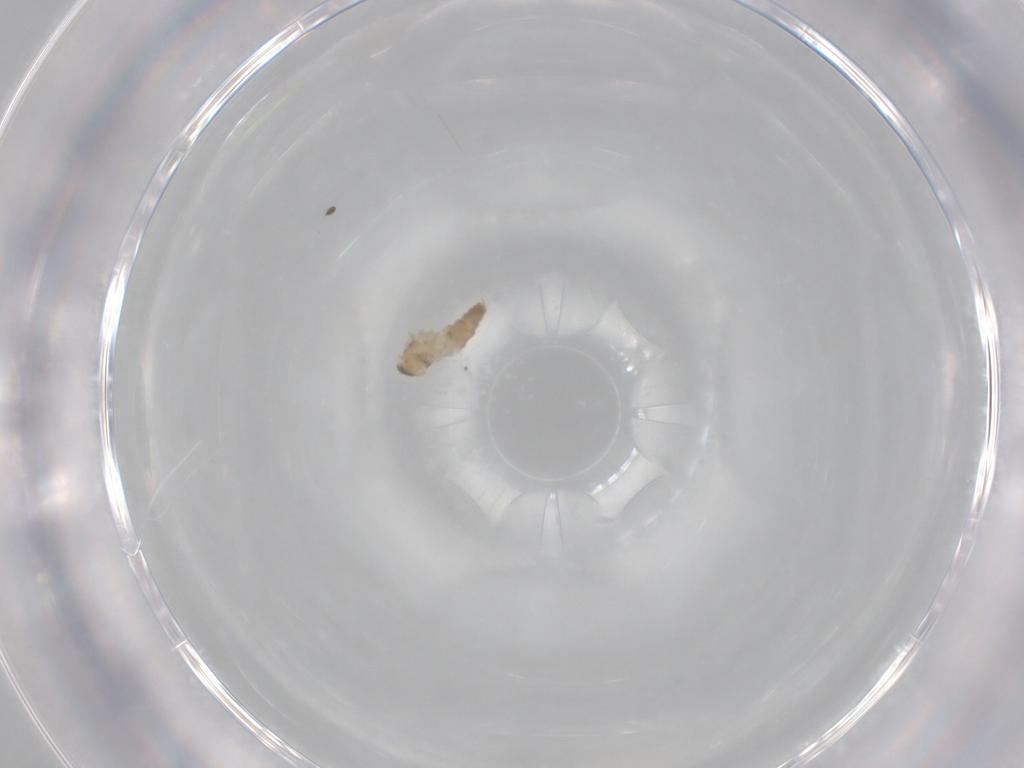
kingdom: Animalia
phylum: Arthropoda
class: Insecta
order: Diptera
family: Cecidomyiidae
